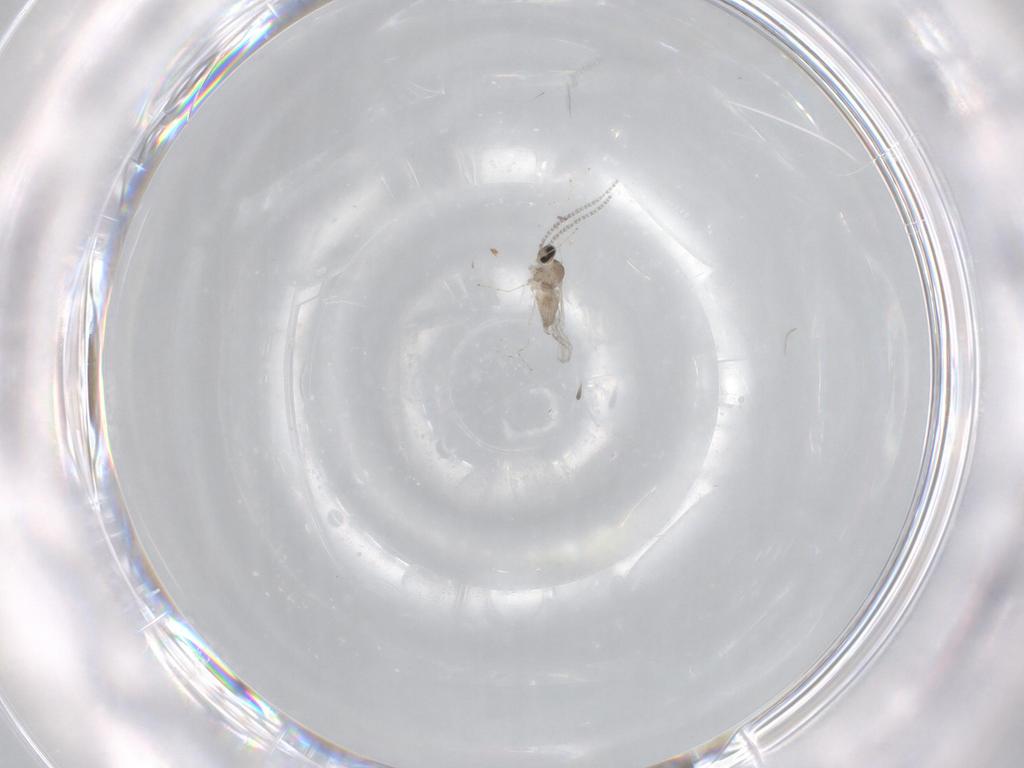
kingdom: Animalia
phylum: Arthropoda
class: Insecta
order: Diptera
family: Cecidomyiidae
